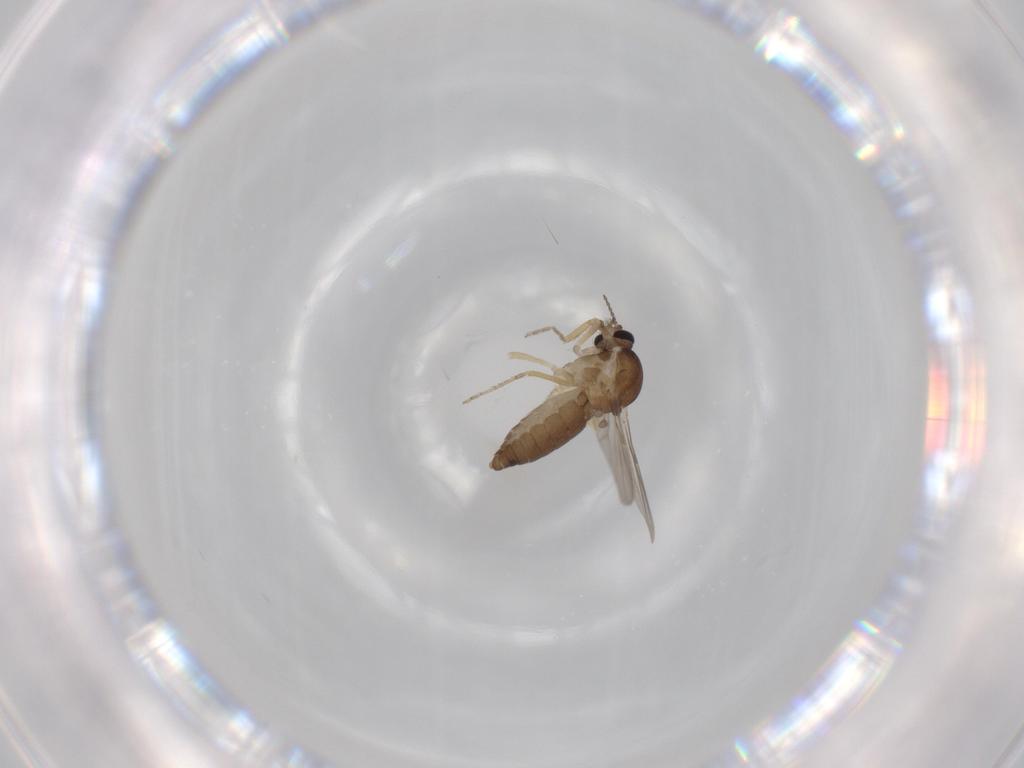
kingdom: Animalia
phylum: Arthropoda
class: Insecta
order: Diptera
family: Ceratopogonidae
